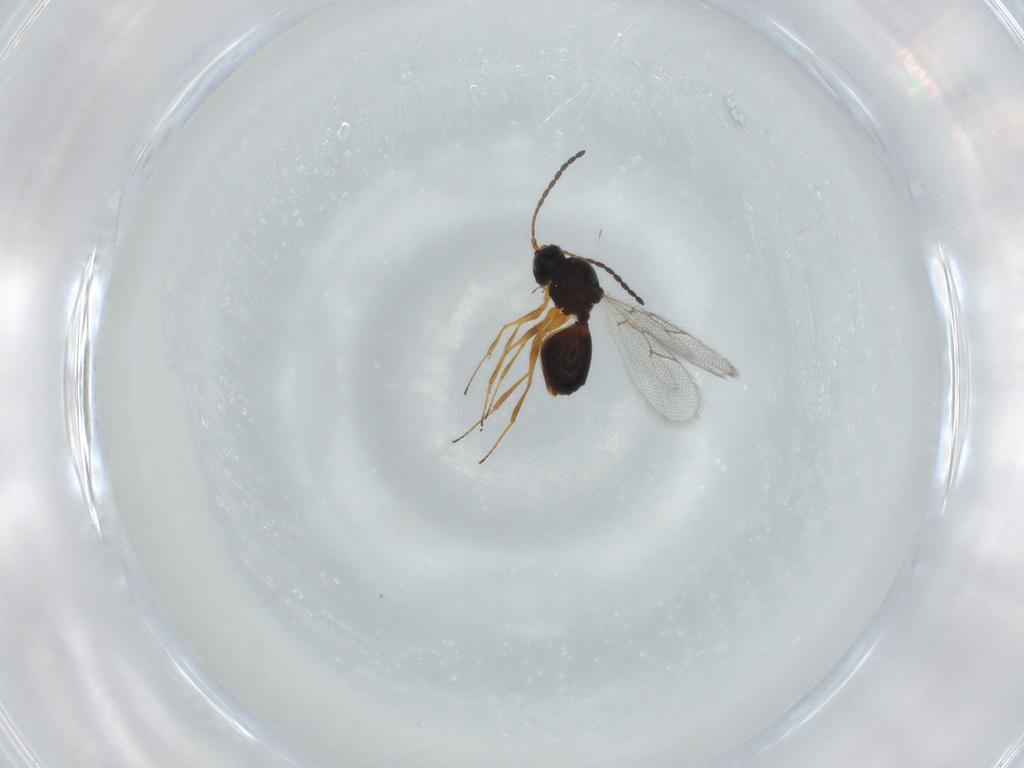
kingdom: Animalia
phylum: Arthropoda
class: Insecta
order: Hymenoptera
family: Figitidae
